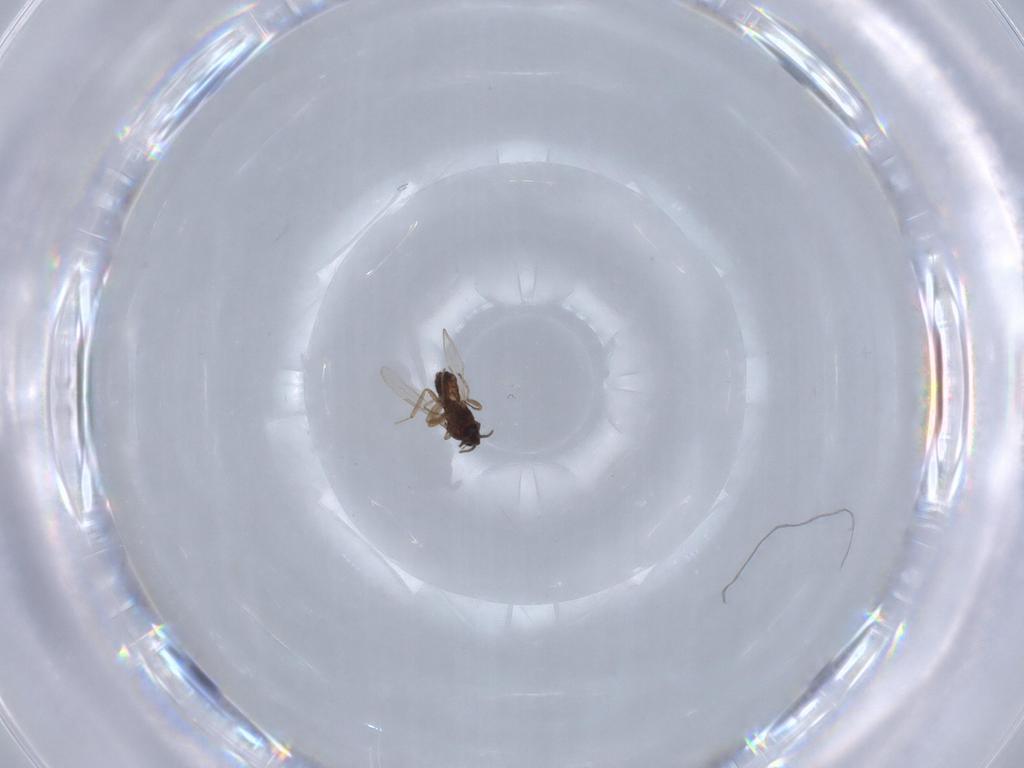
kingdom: Animalia
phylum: Arthropoda
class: Insecta
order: Diptera
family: Ceratopogonidae
